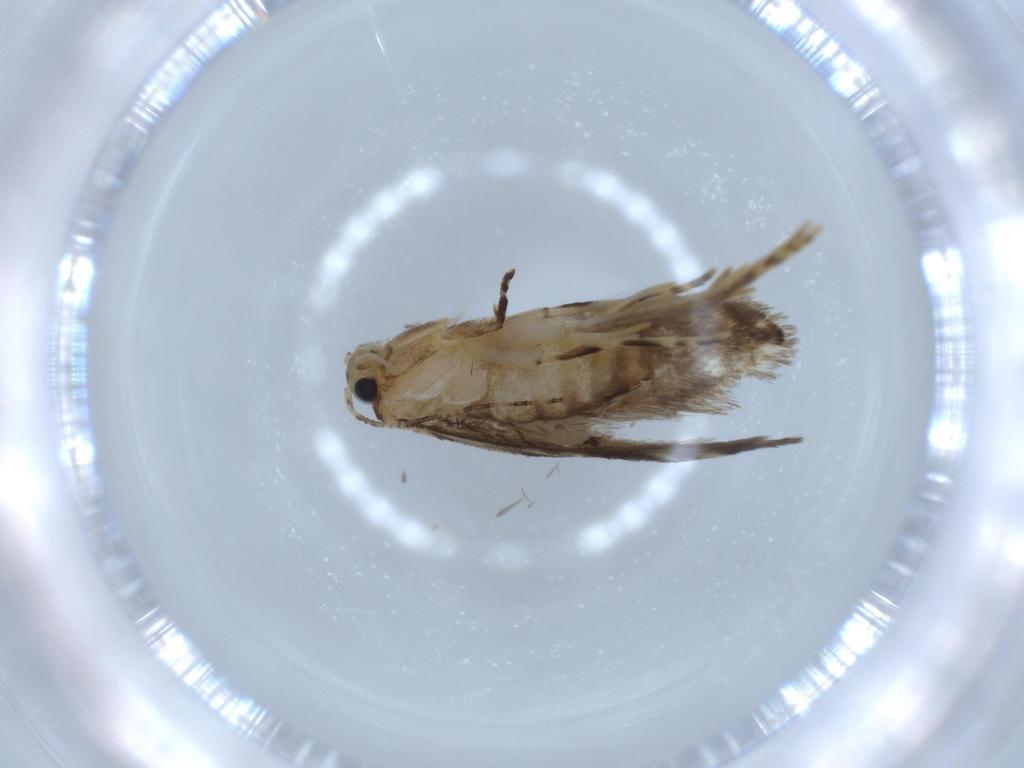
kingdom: Animalia
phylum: Arthropoda
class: Insecta
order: Lepidoptera
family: Tineidae
